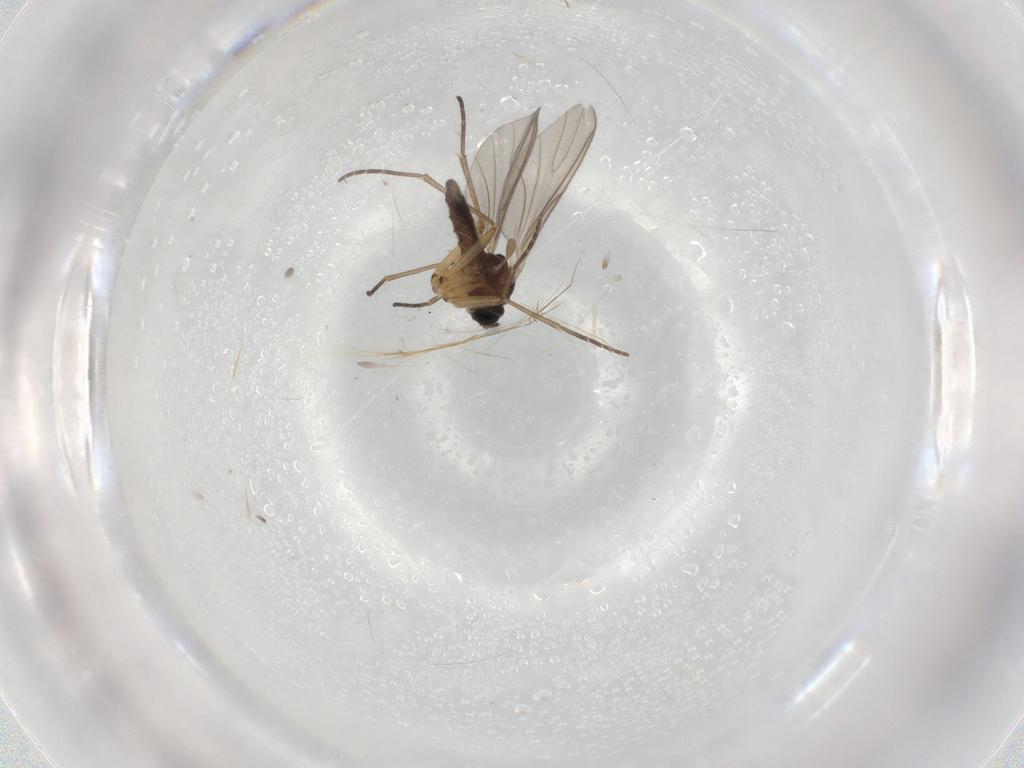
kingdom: Animalia
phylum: Arthropoda
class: Insecta
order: Diptera
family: Sciaridae
